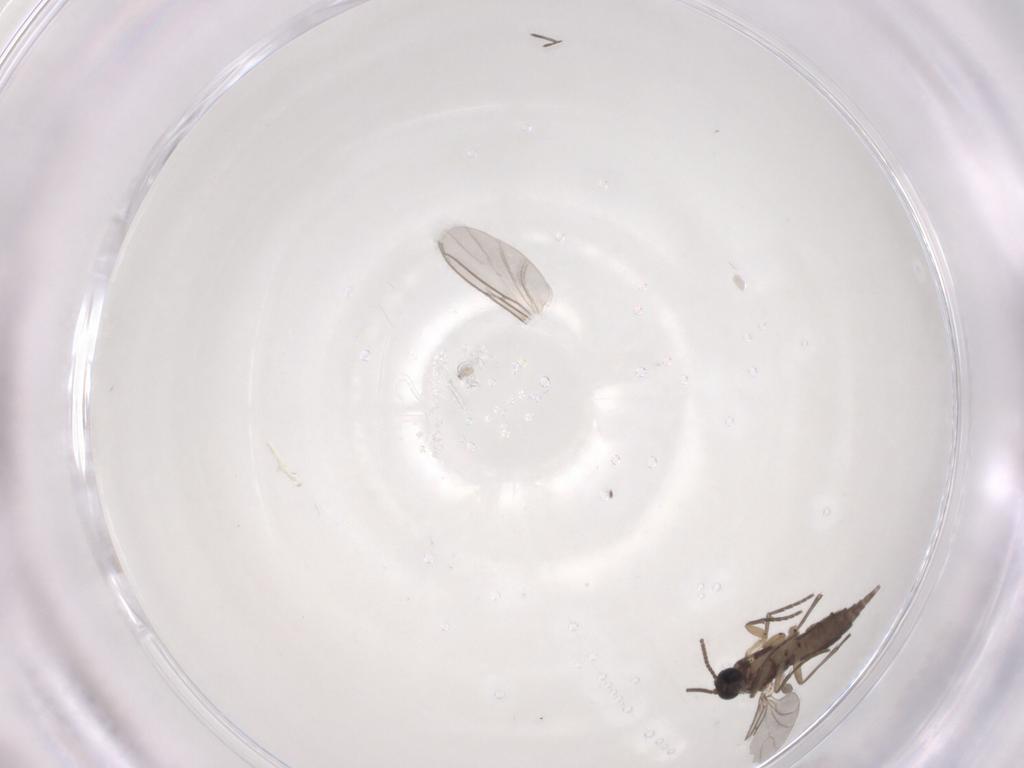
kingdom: Animalia
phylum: Arthropoda
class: Insecta
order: Diptera
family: Sciaridae
